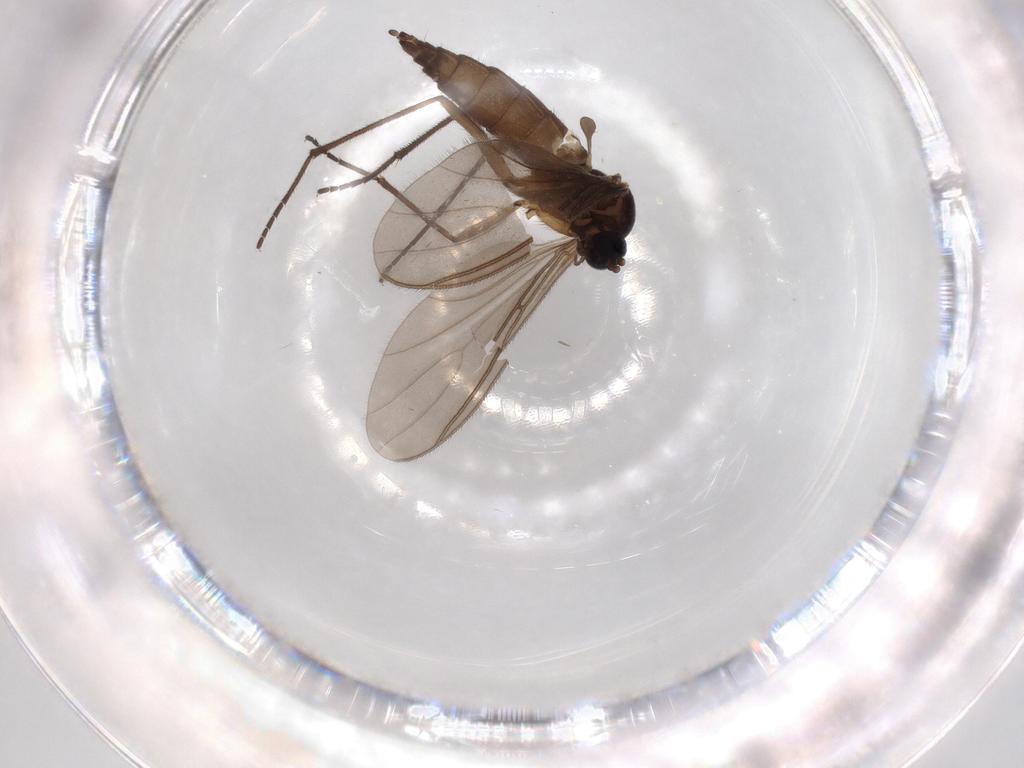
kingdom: Animalia
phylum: Arthropoda
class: Insecta
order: Diptera
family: Sciaridae
